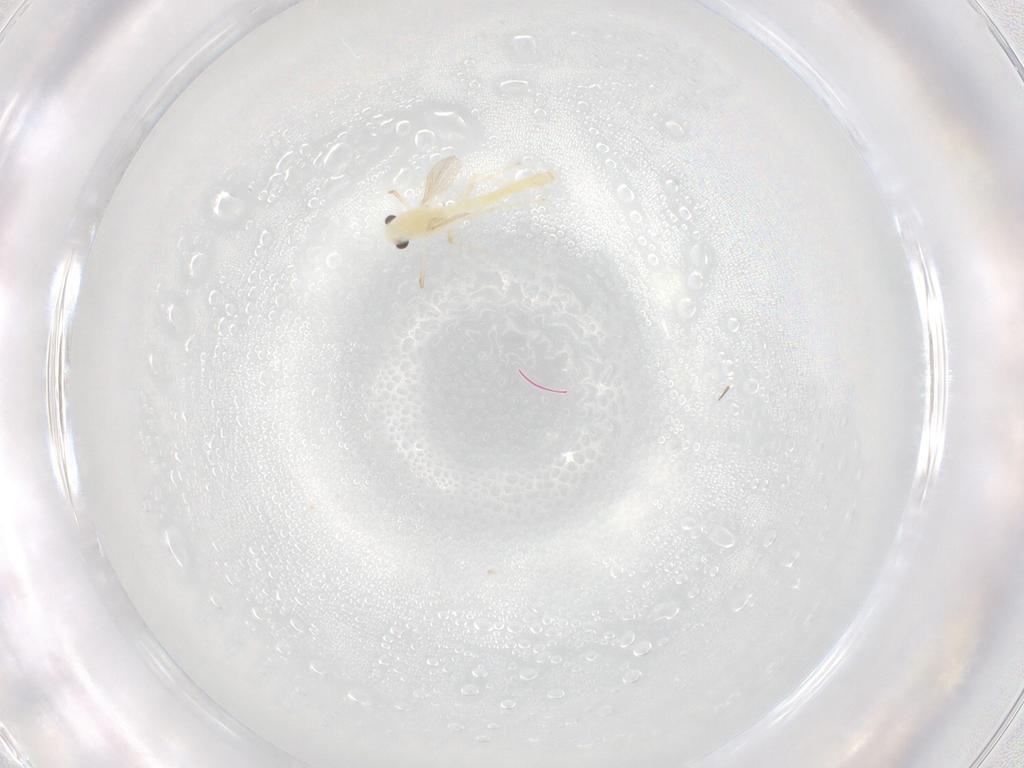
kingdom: Animalia
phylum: Arthropoda
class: Insecta
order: Diptera
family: Chironomidae
